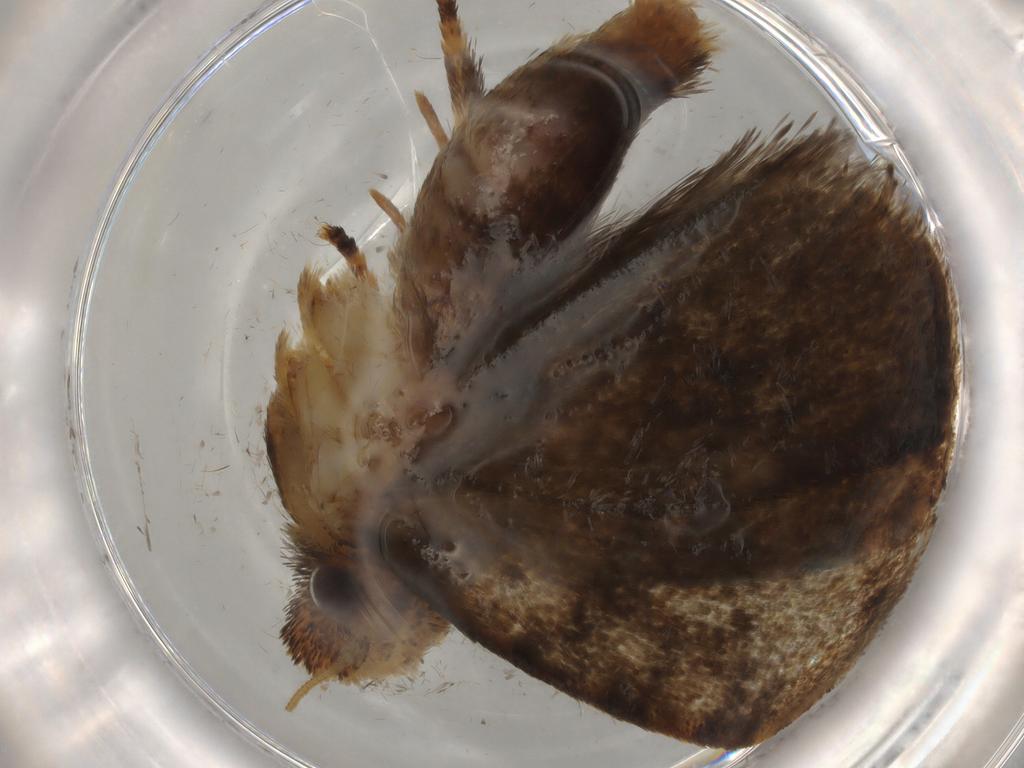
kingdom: Animalia
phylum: Arthropoda
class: Insecta
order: Lepidoptera
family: Tineidae
